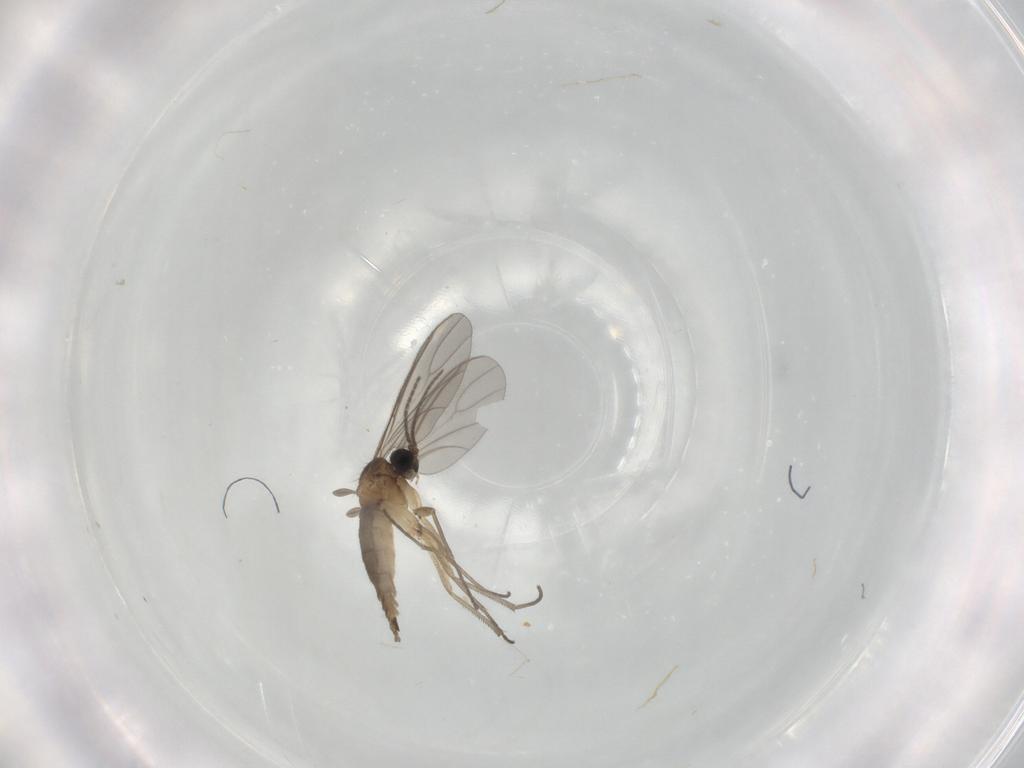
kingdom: Animalia
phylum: Arthropoda
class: Insecta
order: Diptera
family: Sciaridae
